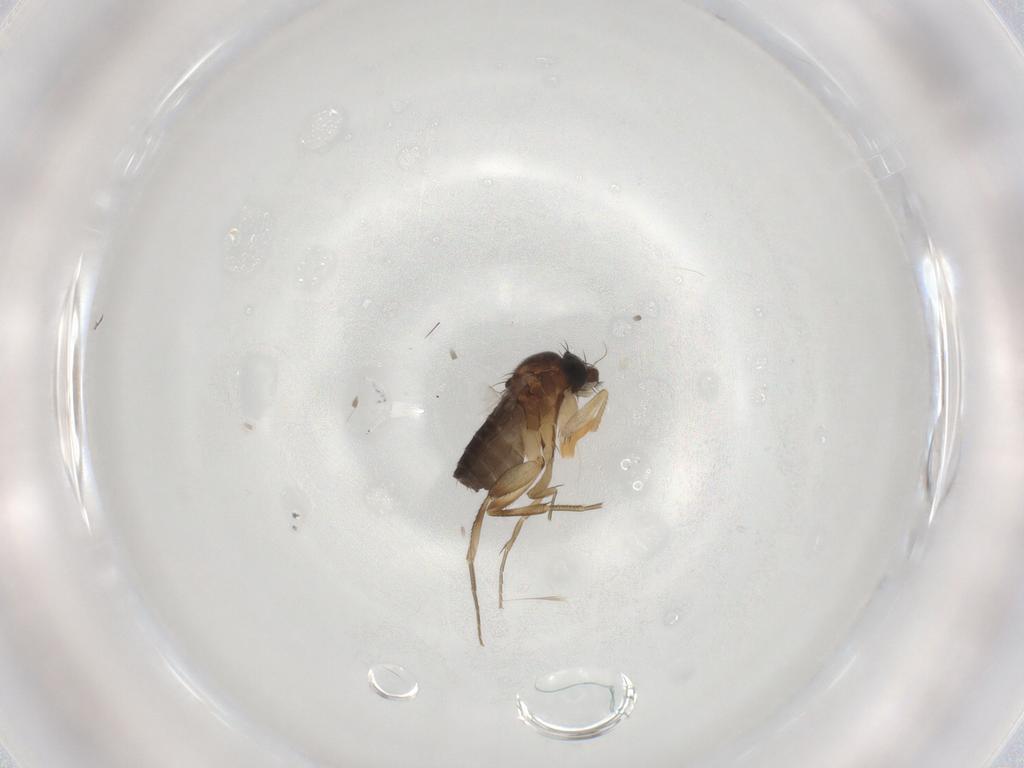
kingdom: Animalia
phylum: Arthropoda
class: Insecta
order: Diptera
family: Phoridae
